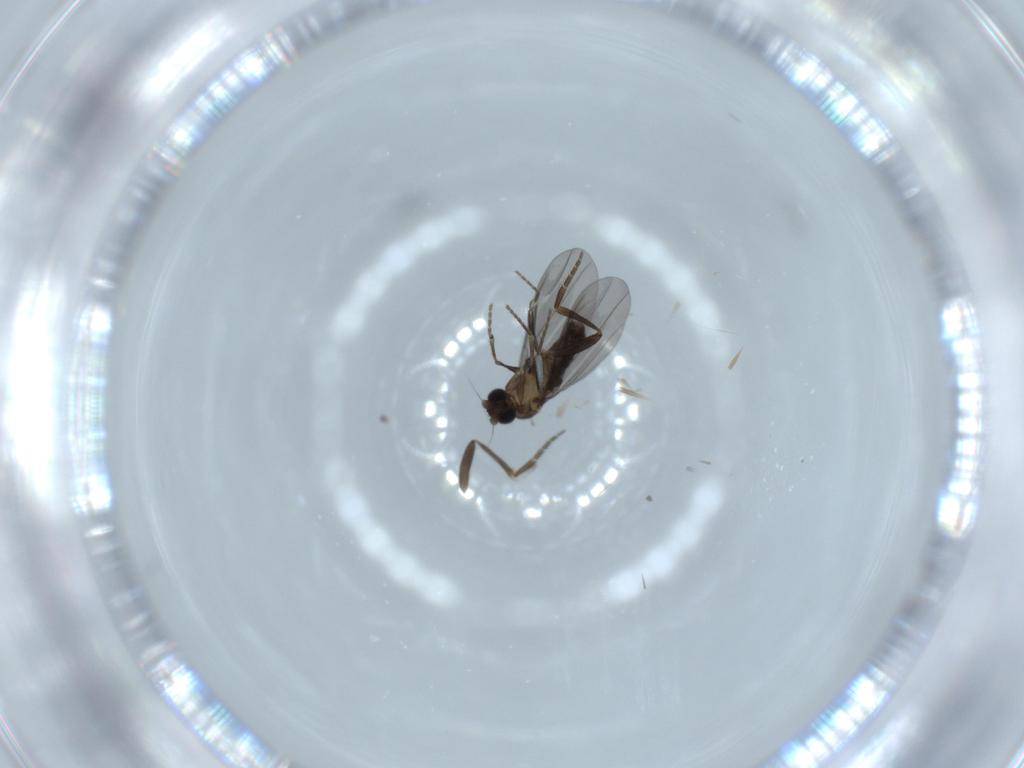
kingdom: Animalia
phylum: Arthropoda
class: Insecta
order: Diptera
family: Phoridae
